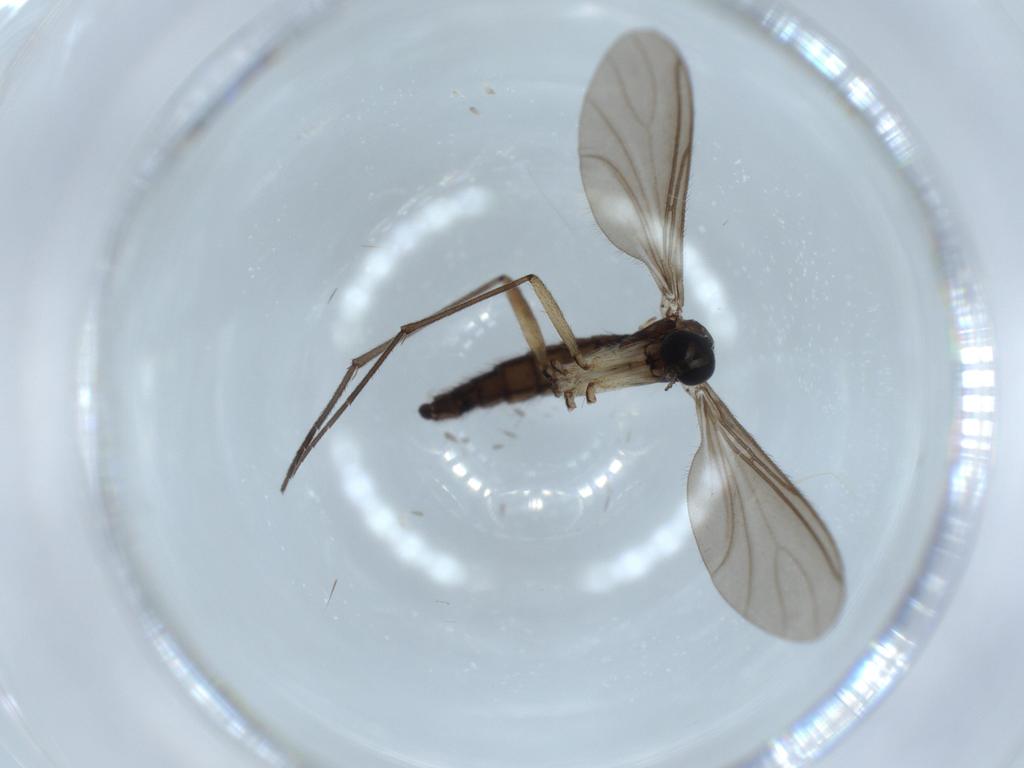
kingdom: Animalia
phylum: Arthropoda
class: Insecta
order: Diptera
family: Sciaridae
